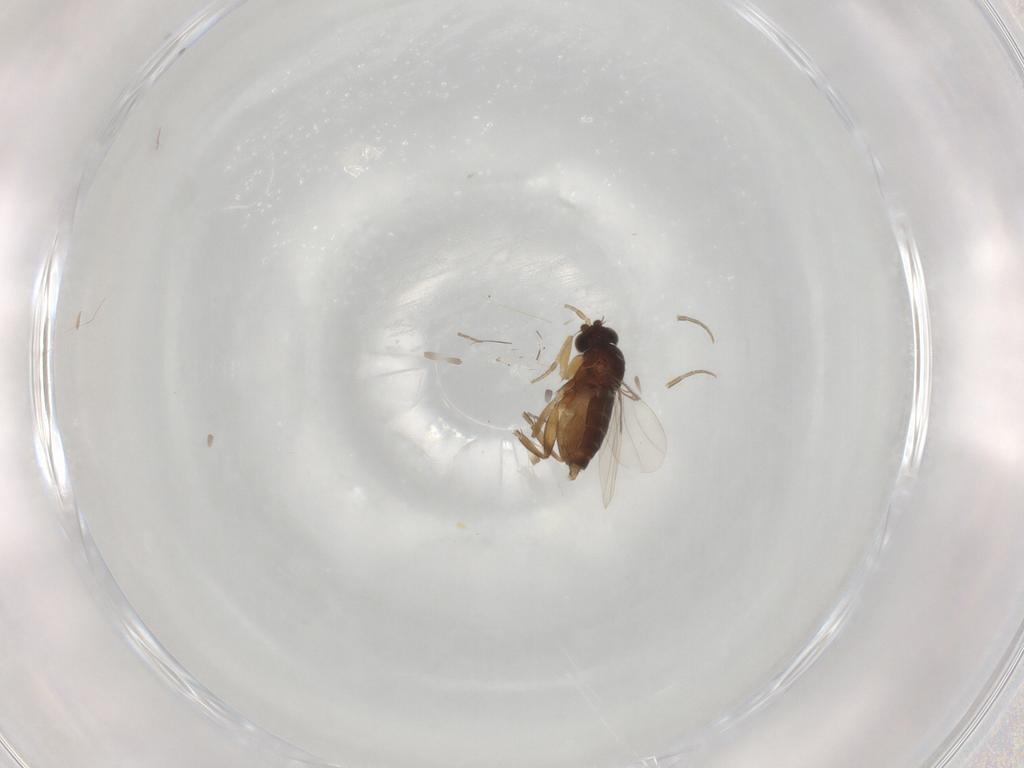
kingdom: Animalia
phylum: Arthropoda
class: Insecta
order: Diptera
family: Phoridae
